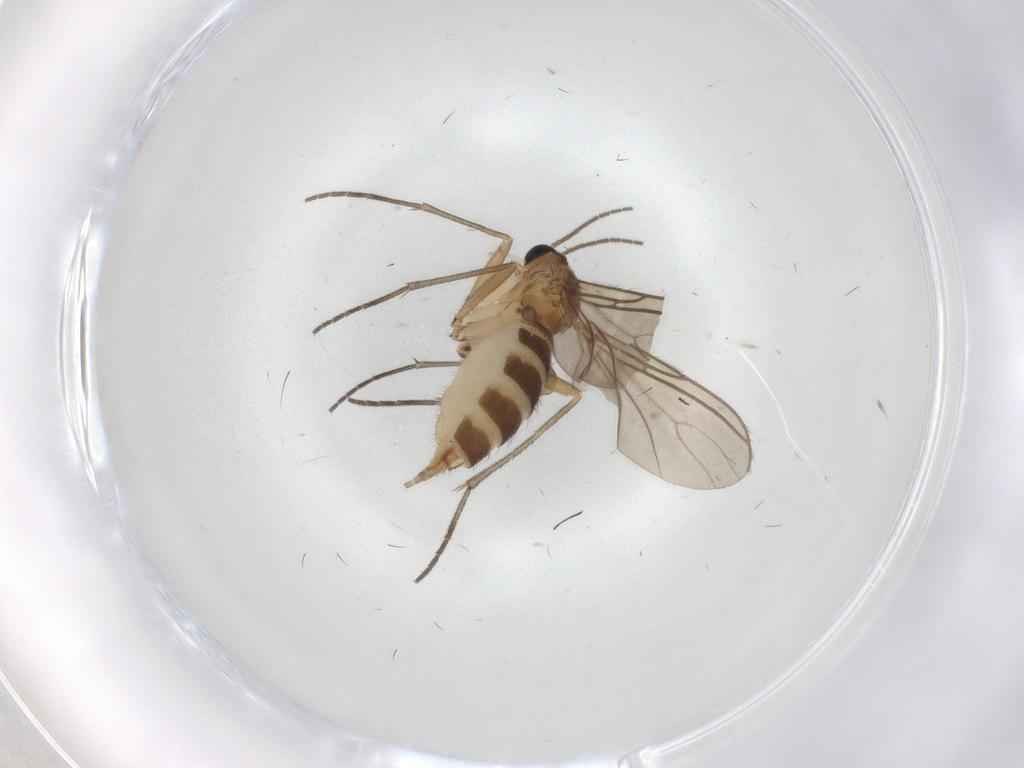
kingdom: Animalia
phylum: Arthropoda
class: Insecta
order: Diptera
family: Sciaridae
